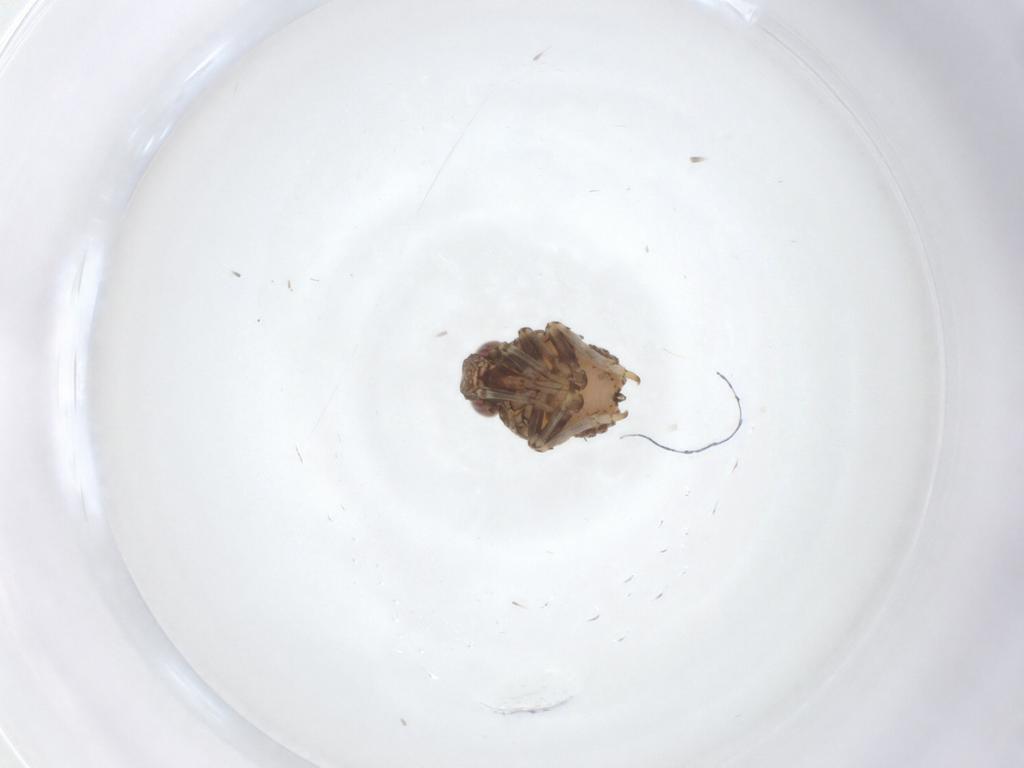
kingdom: Animalia
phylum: Arthropoda
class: Insecta
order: Hemiptera
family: Issidae
